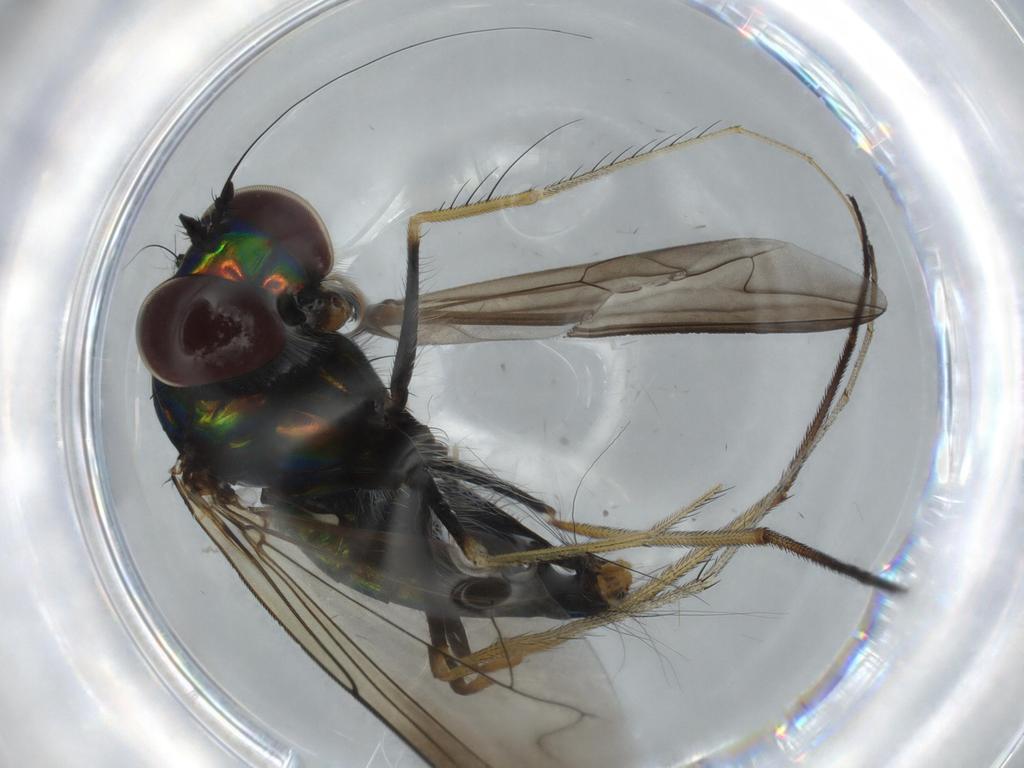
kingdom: Animalia
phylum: Arthropoda
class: Insecta
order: Diptera
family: Dolichopodidae
